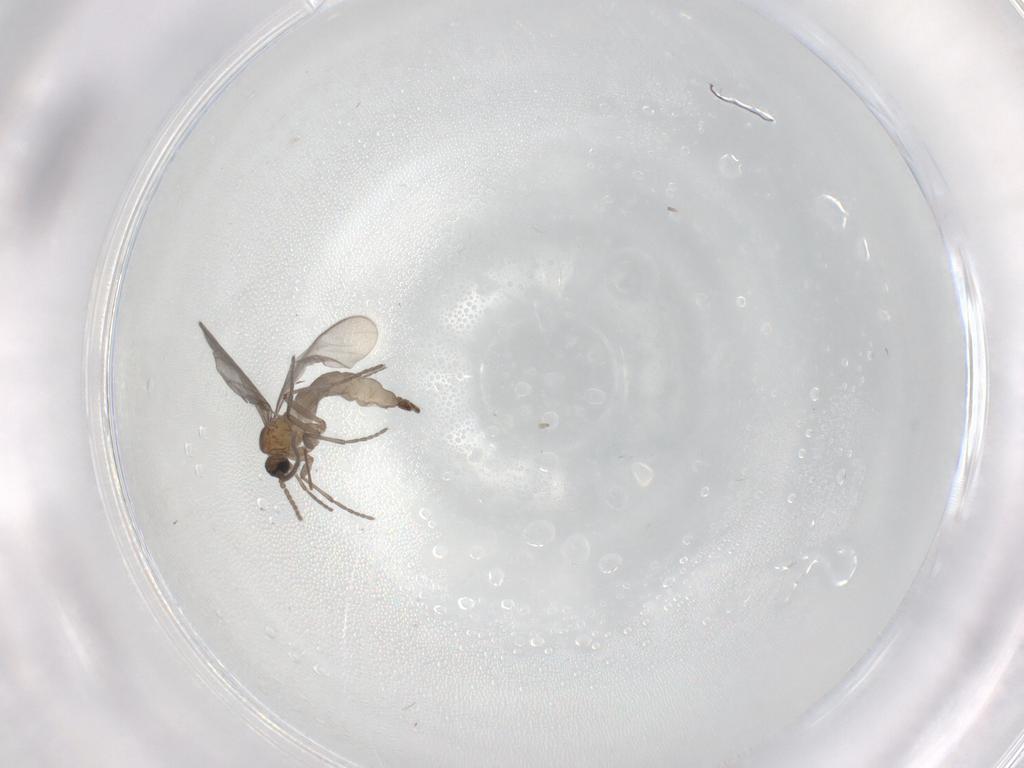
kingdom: Animalia
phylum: Arthropoda
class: Insecta
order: Diptera
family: Sciaridae
